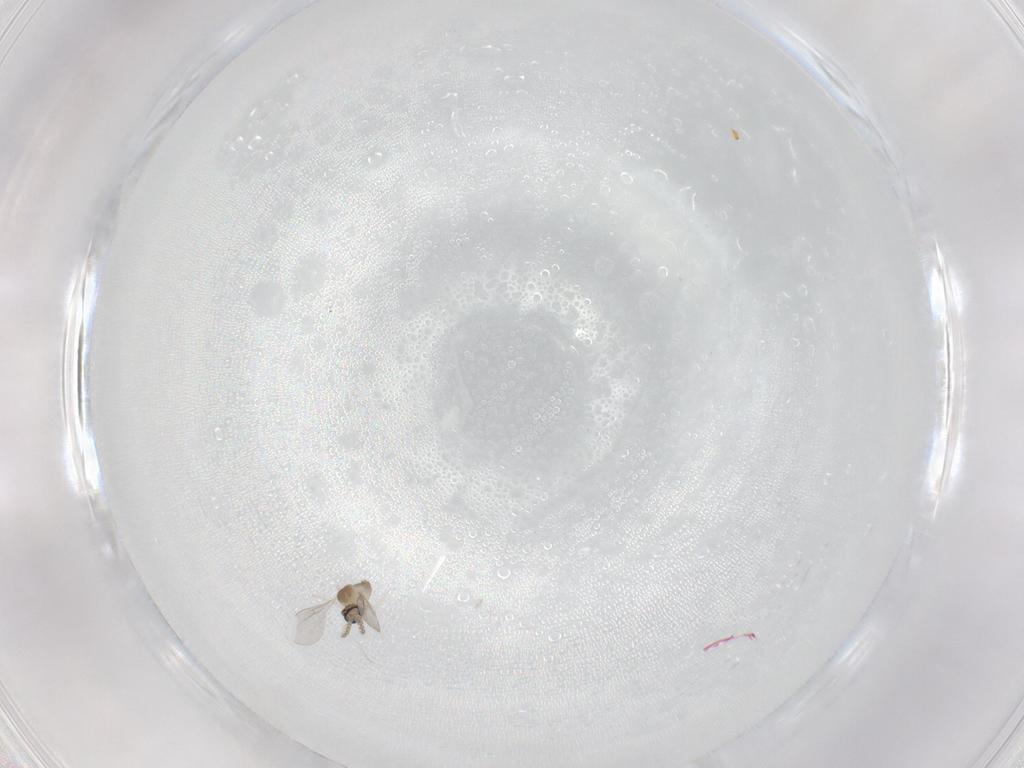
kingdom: Animalia
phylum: Arthropoda
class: Insecta
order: Diptera
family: Cecidomyiidae
